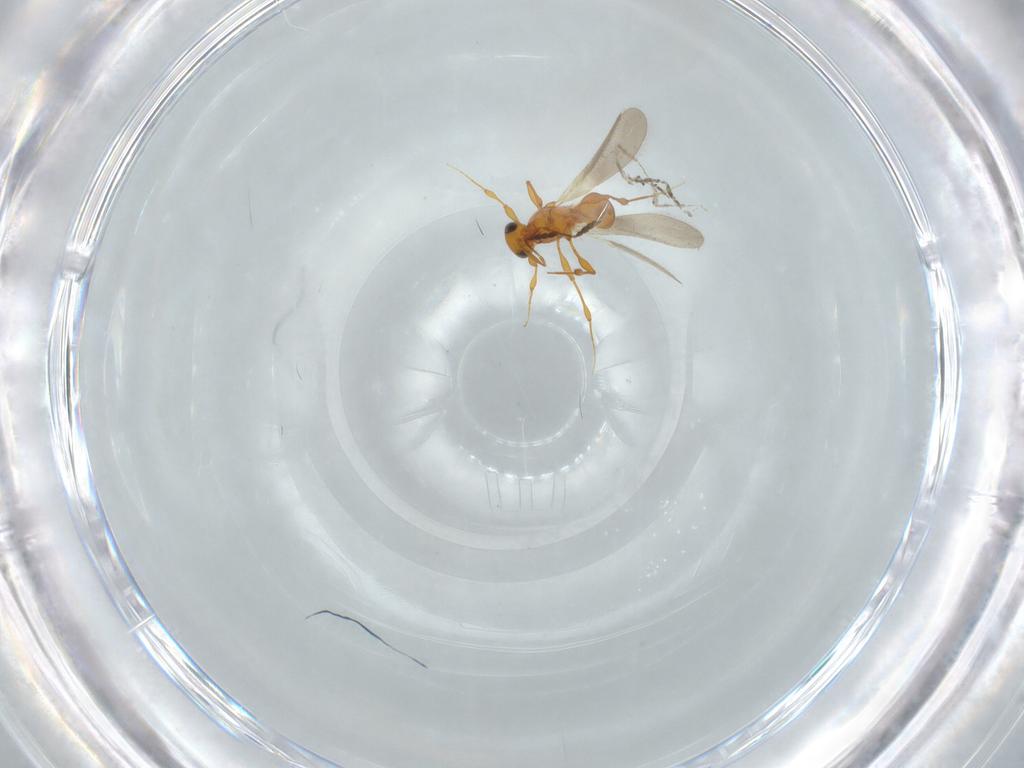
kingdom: Animalia
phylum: Arthropoda
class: Insecta
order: Hymenoptera
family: Platygastridae
